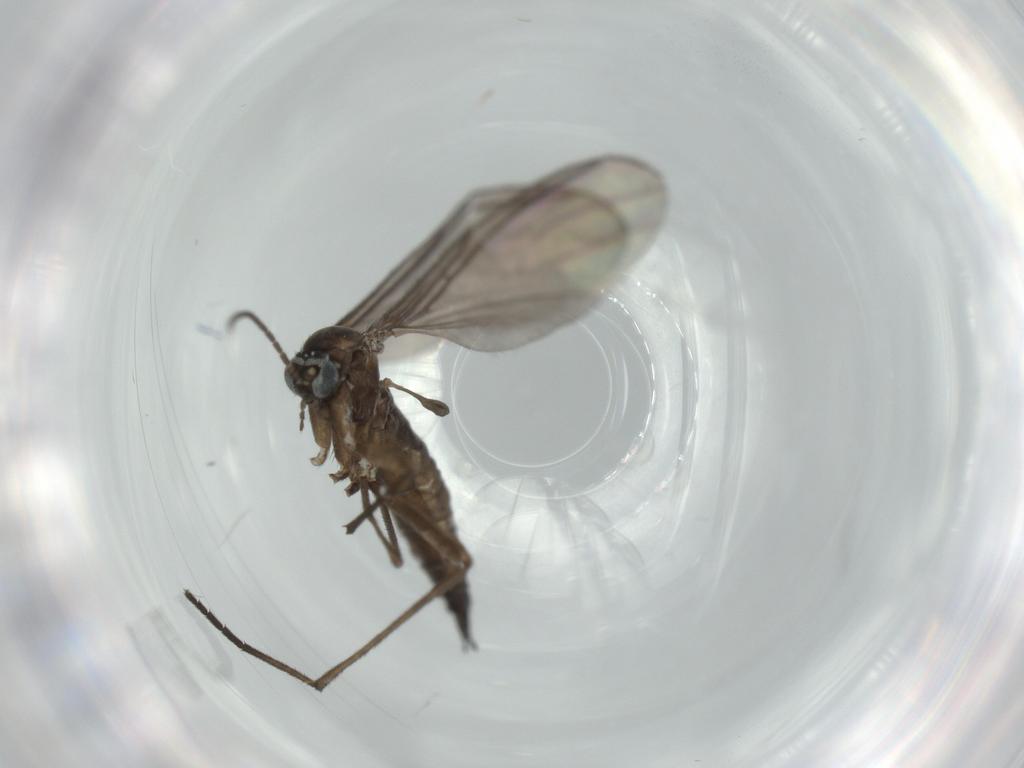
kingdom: Animalia
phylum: Arthropoda
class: Insecta
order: Diptera
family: Sciaridae
